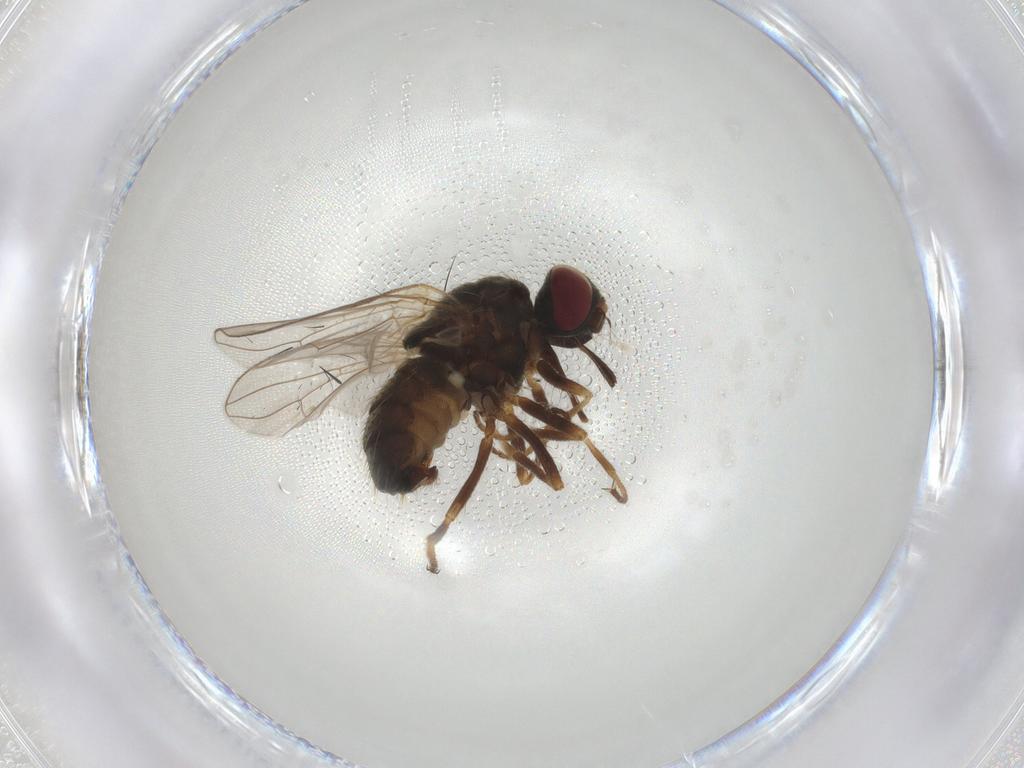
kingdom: Animalia
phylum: Arthropoda
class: Insecta
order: Diptera
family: Muscidae
